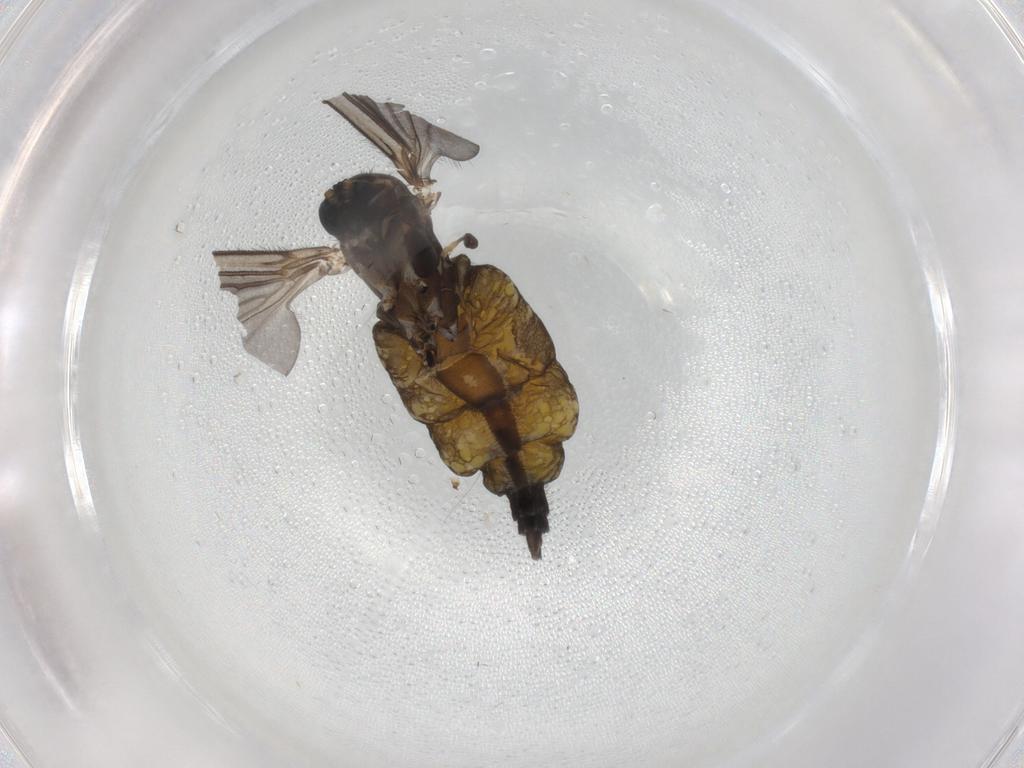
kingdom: Animalia
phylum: Arthropoda
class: Insecta
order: Diptera
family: Sciaridae
